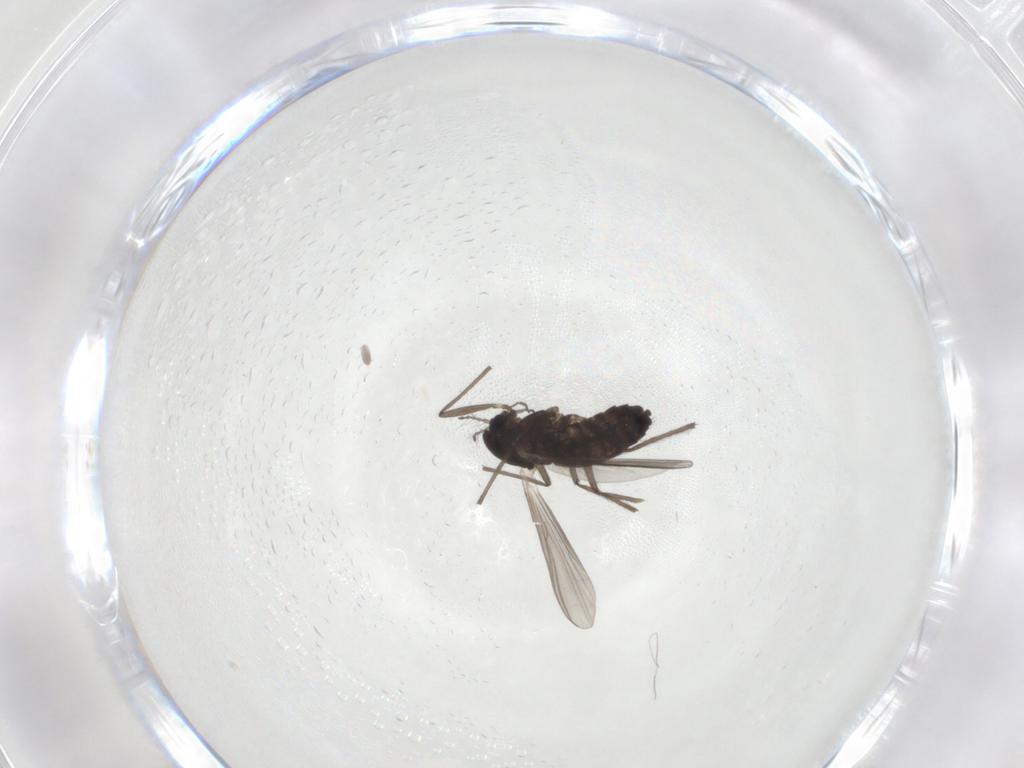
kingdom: Animalia
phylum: Arthropoda
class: Insecta
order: Diptera
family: Chironomidae
